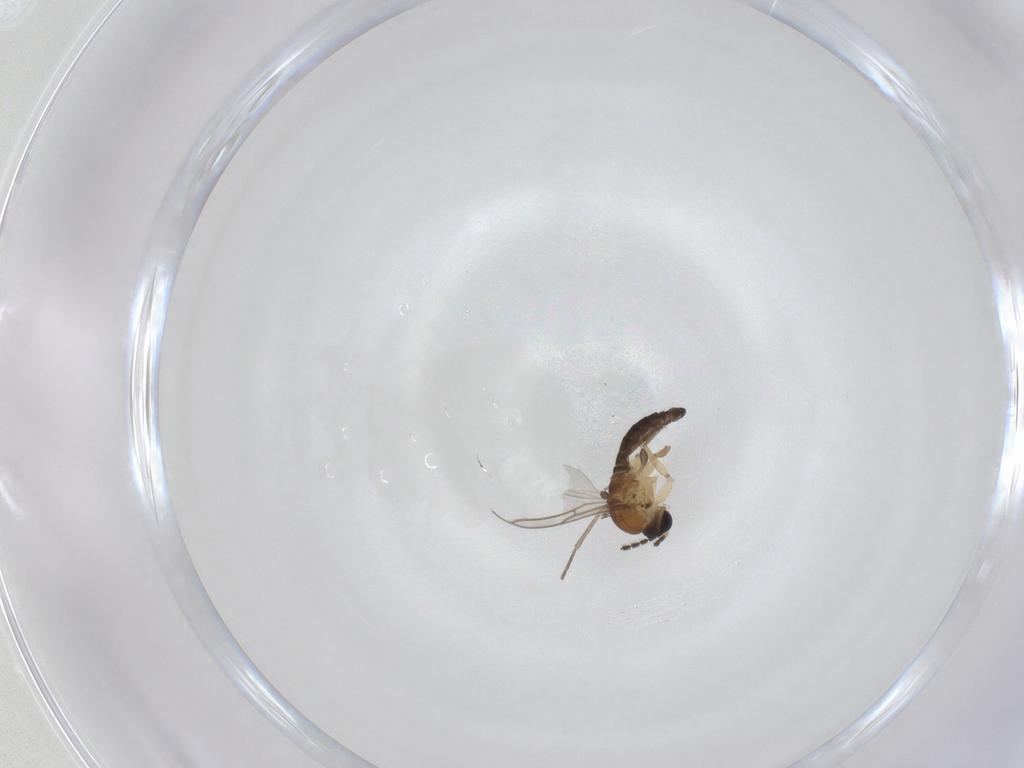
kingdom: Animalia
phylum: Arthropoda
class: Insecta
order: Diptera
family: Sciaridae
